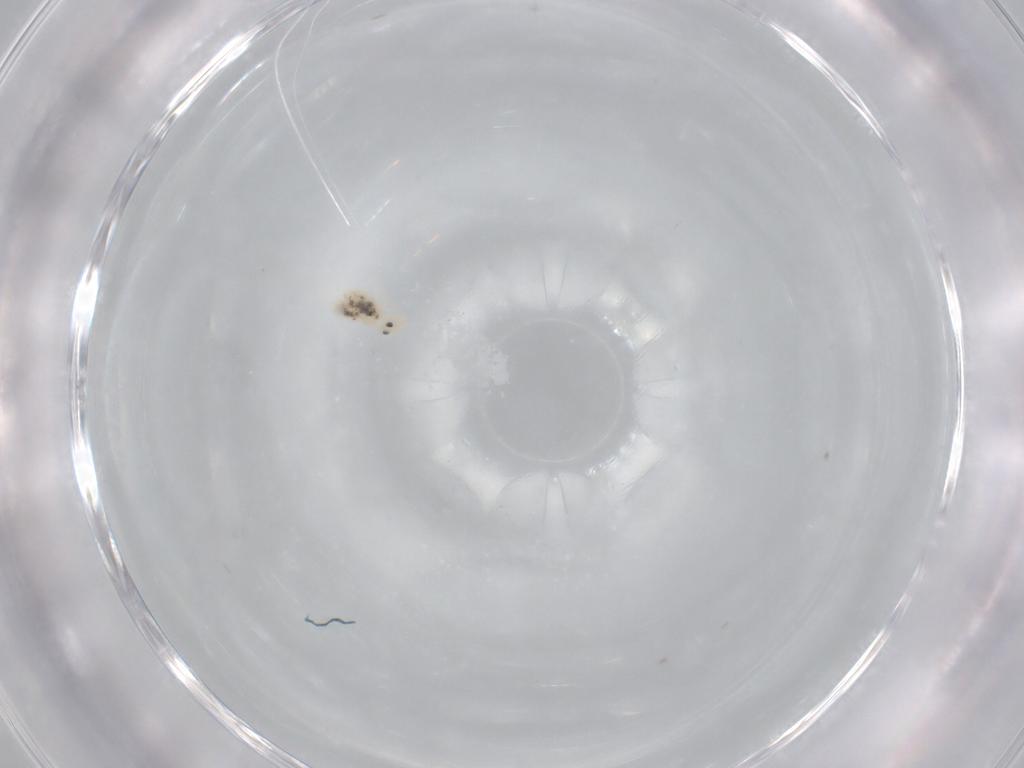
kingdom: Animalia
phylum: Arthropoda
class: Collembola
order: Symphypleona
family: Bourletiellidae
